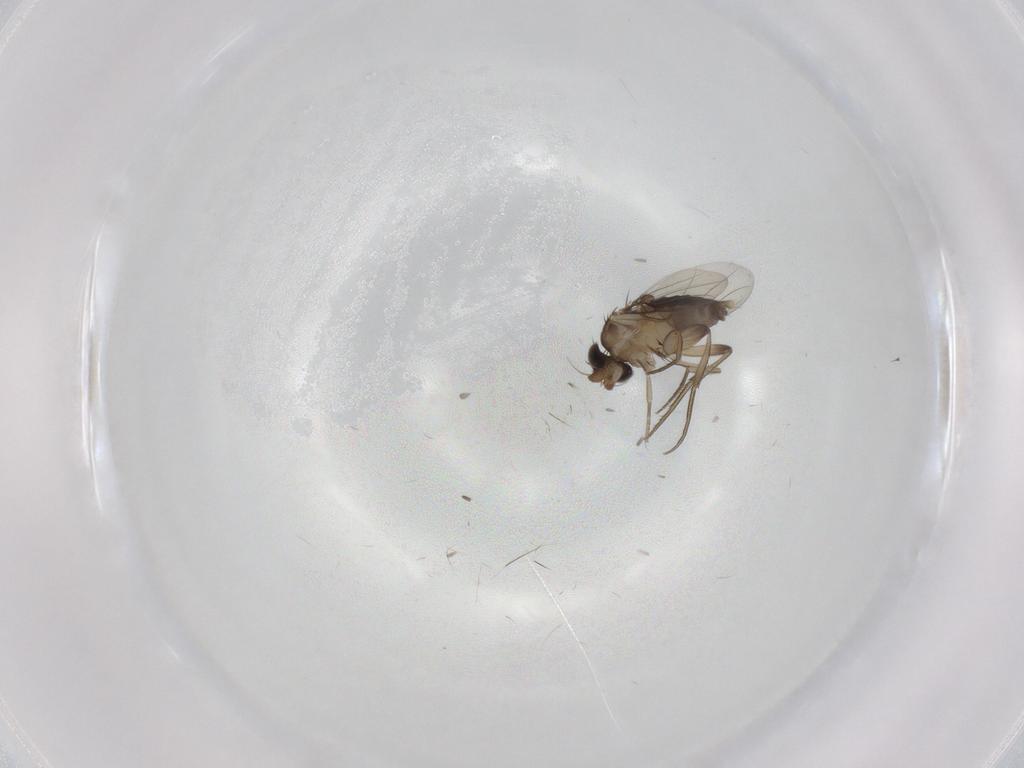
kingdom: Animalia
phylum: Arthropoda
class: Insecta
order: Diptera
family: Phoridae
